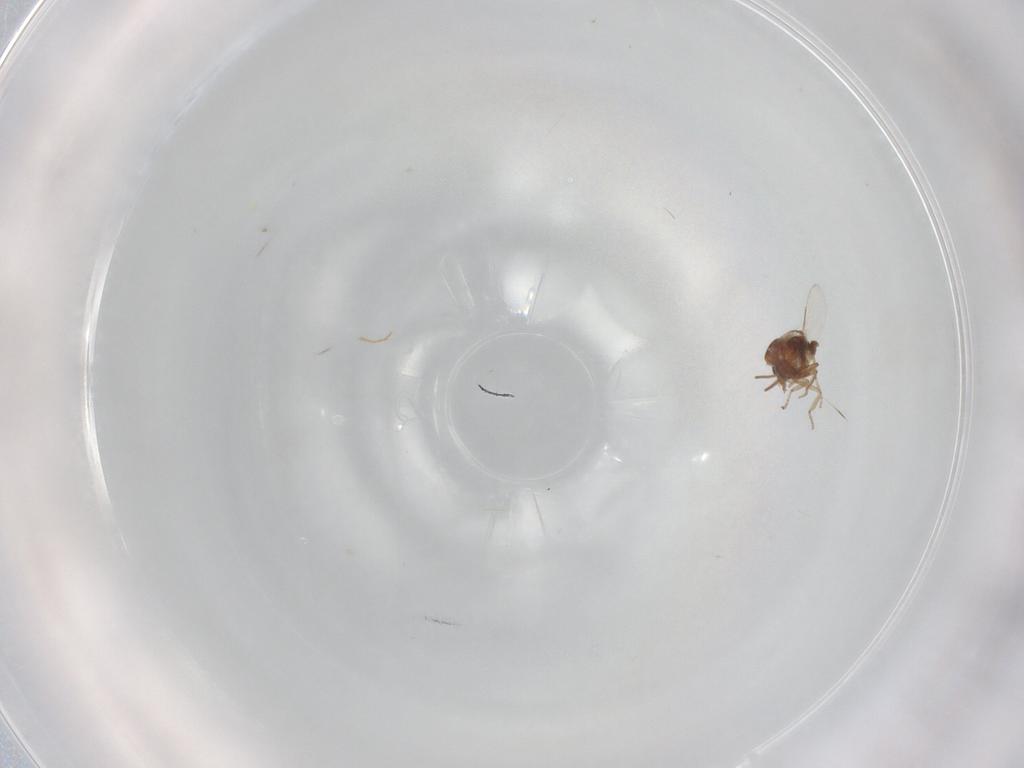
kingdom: Animalia
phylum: Arthropoda
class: Insecta
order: Diptera
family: Ceratopogonidae
